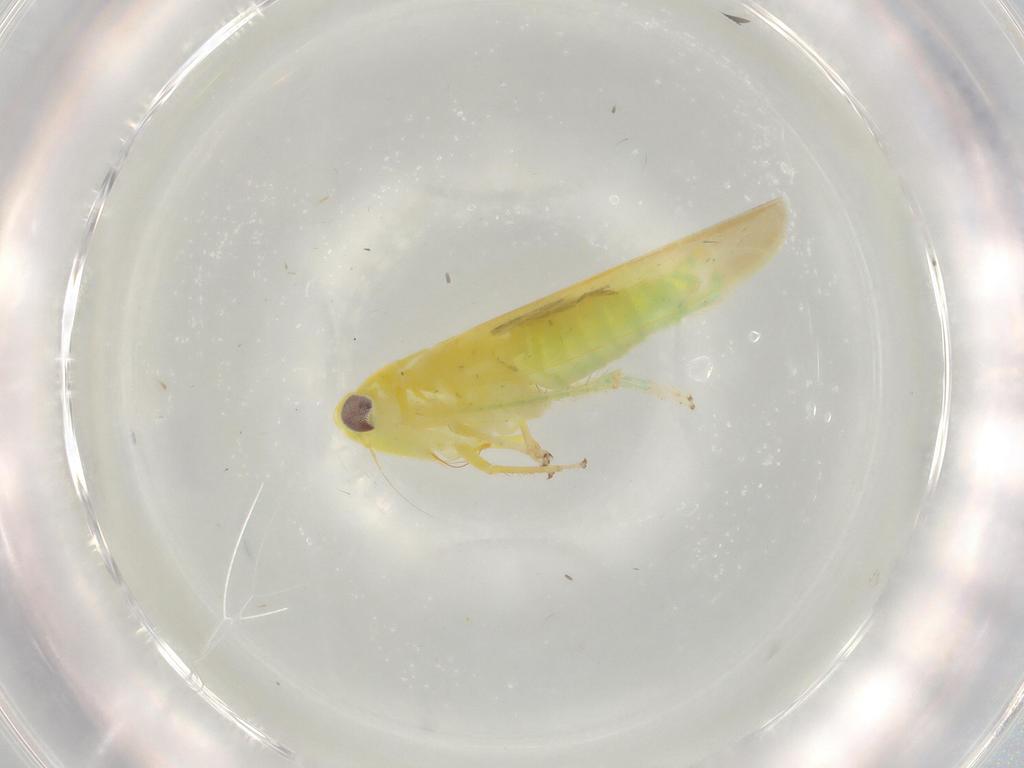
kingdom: Animalia
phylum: Arthropoda
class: Insecta
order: Hemiptera
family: Cicadellidae
